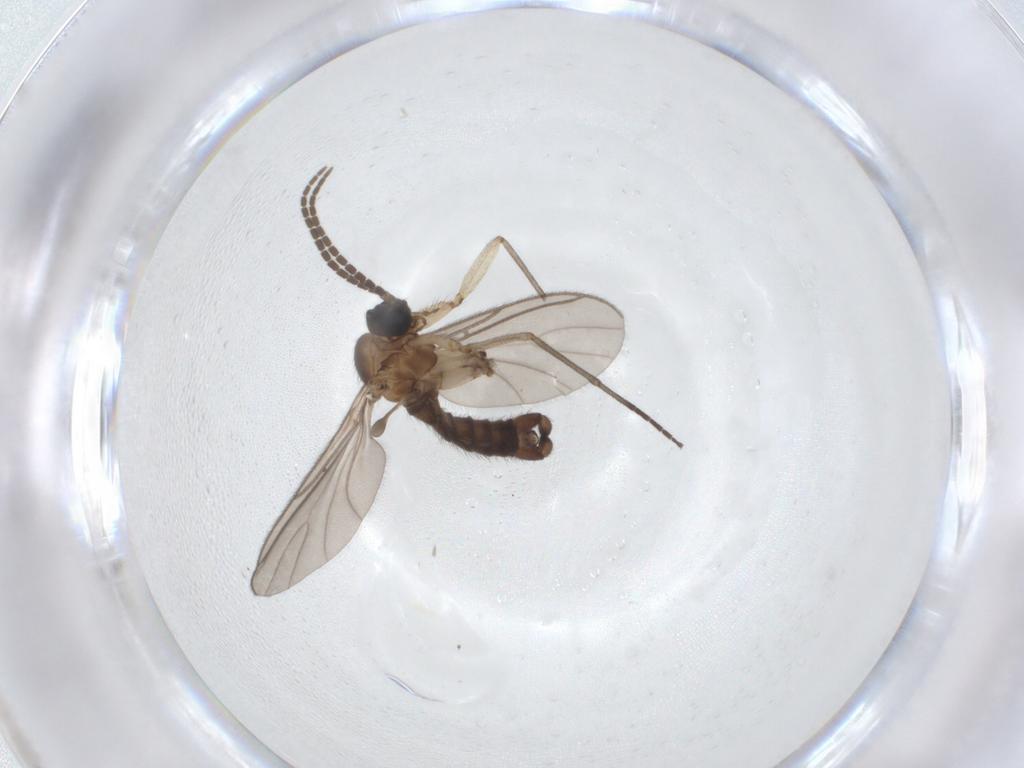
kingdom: Animalia
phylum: Arthropoda
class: Insecta
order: Diptera
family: Sciaridae
